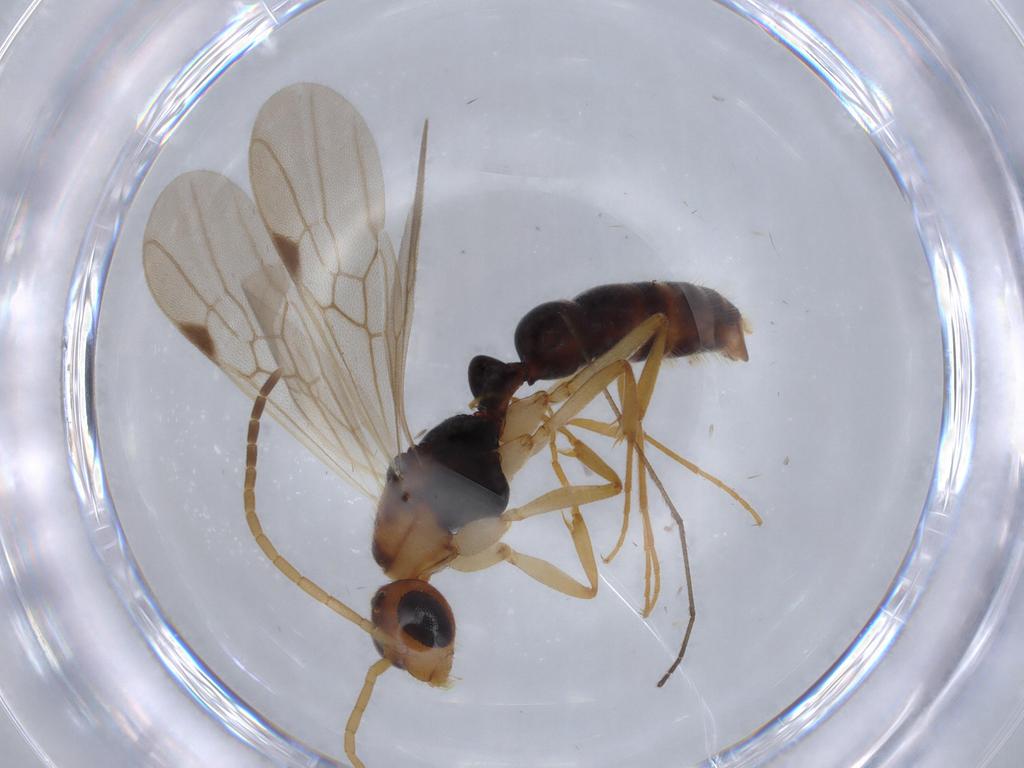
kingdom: Animalia
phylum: Arthropoda
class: Insecta
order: Hymenoptera
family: Formicidae
